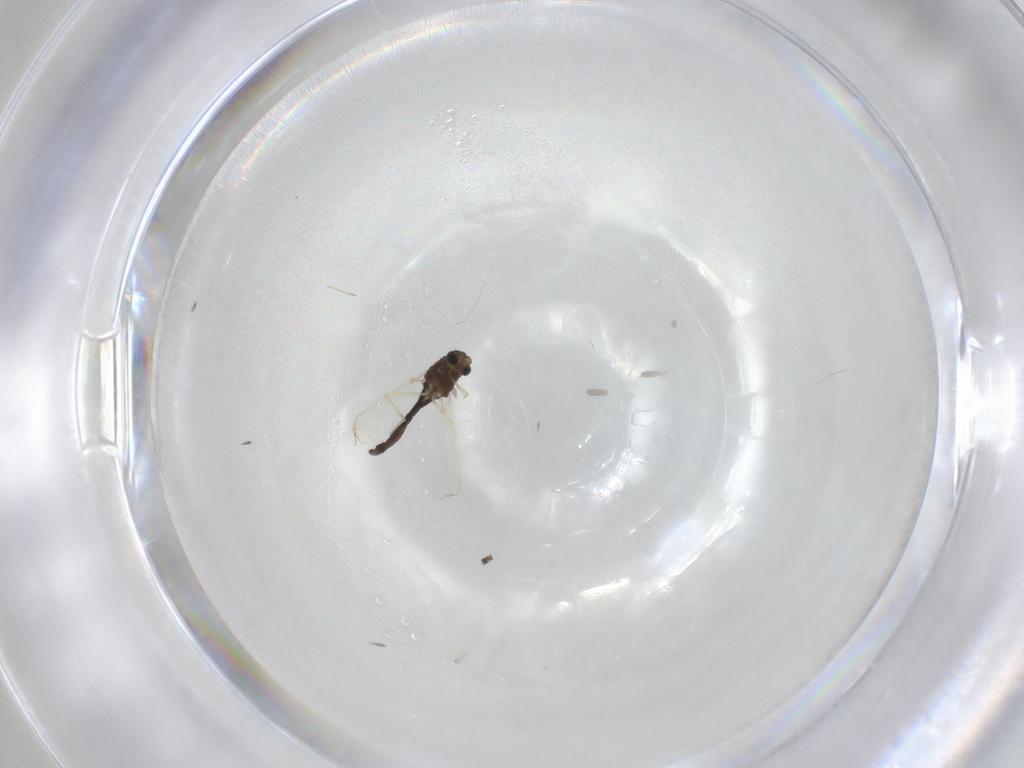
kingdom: Animalia
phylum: Arthropoda
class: Insecta
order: Diptera
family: Chironomidae
